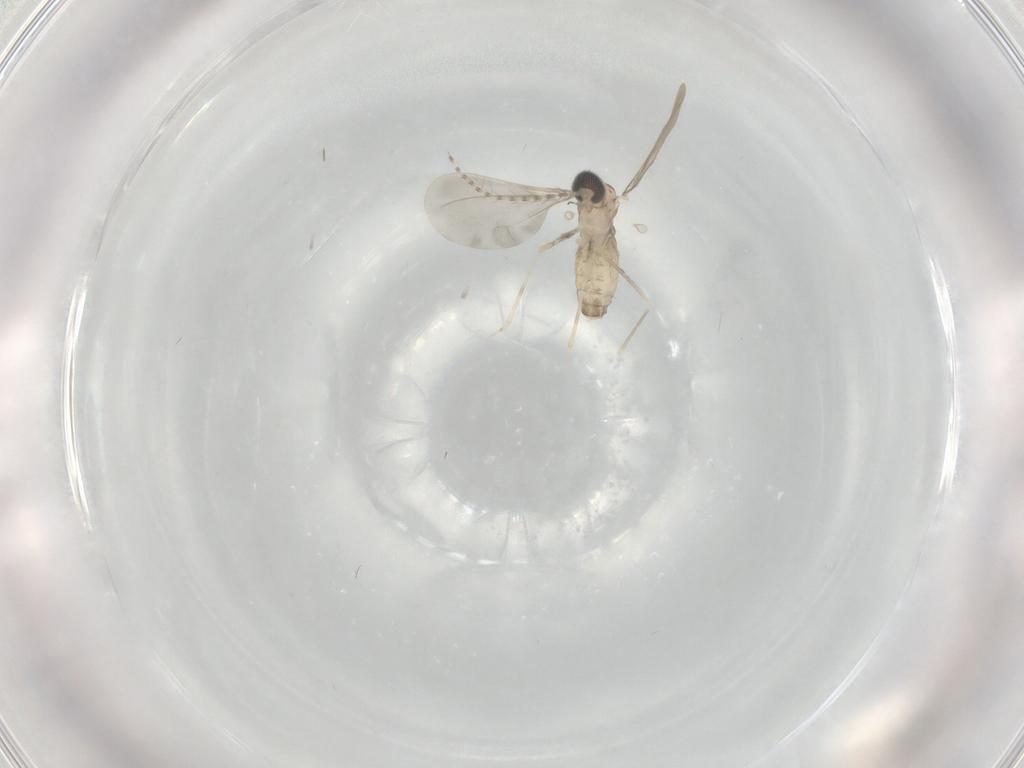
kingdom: Animalia
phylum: Arthropoda
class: Insecta
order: Diptera
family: Cecidomyiidae
